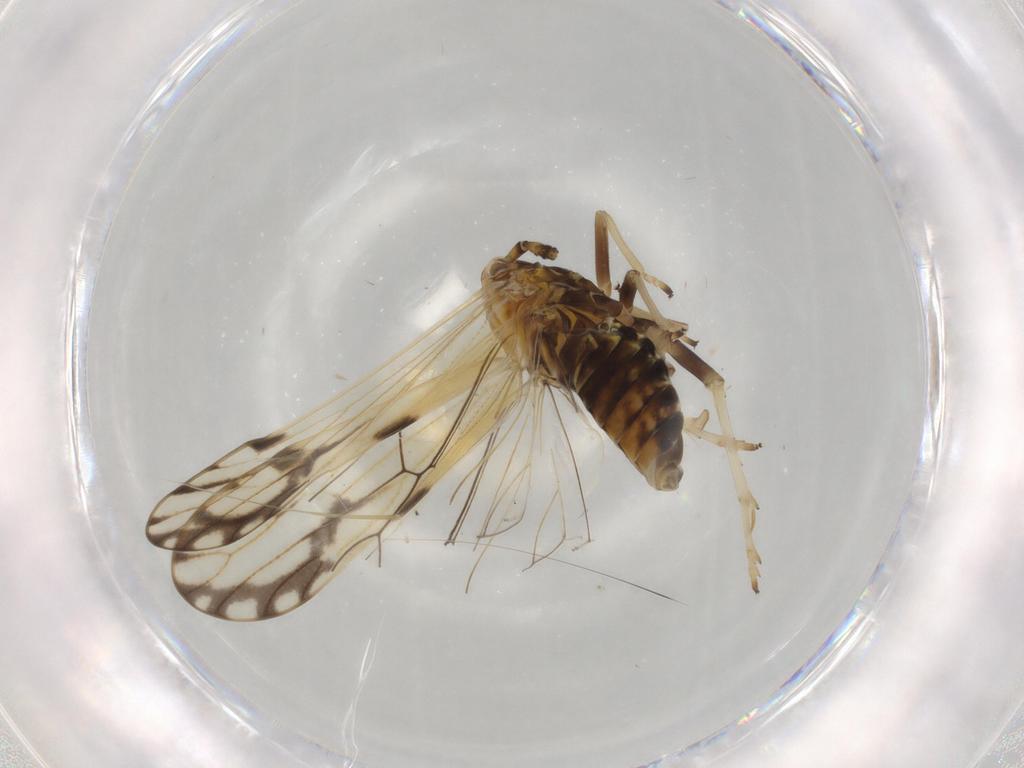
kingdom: Animalia
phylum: Arthropoda
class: Insecta
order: Hemiptera
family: Delphacidae
